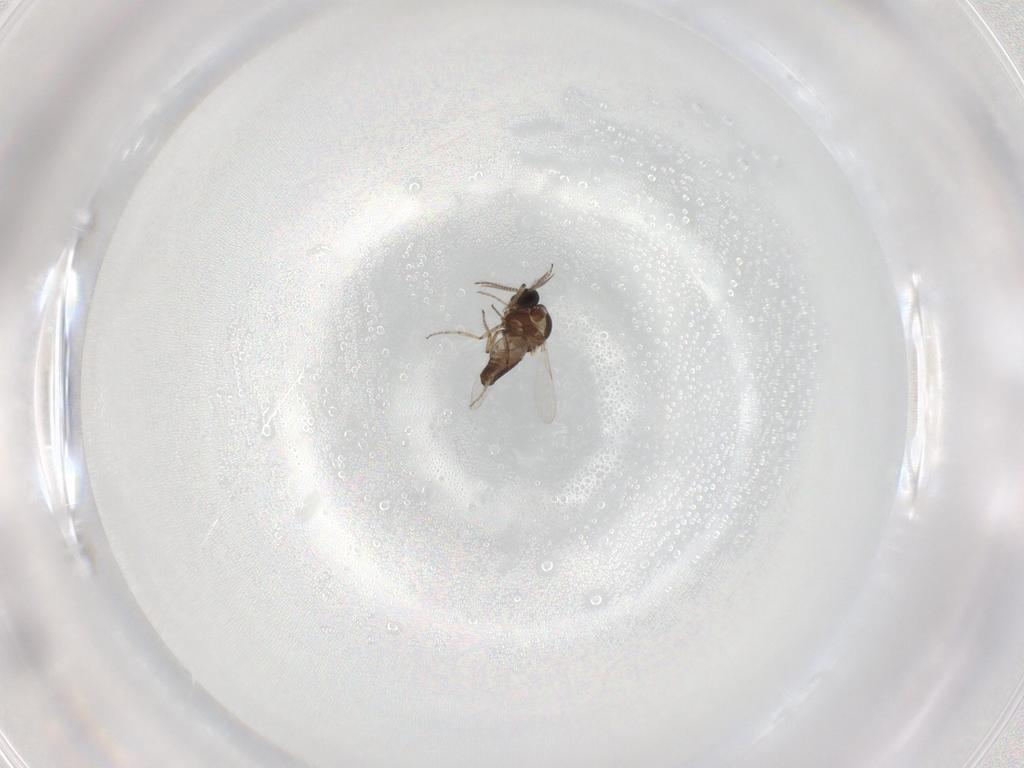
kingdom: Animalia
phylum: Arthropoda
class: Insecta
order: Diptera
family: Ceratopogonidae
